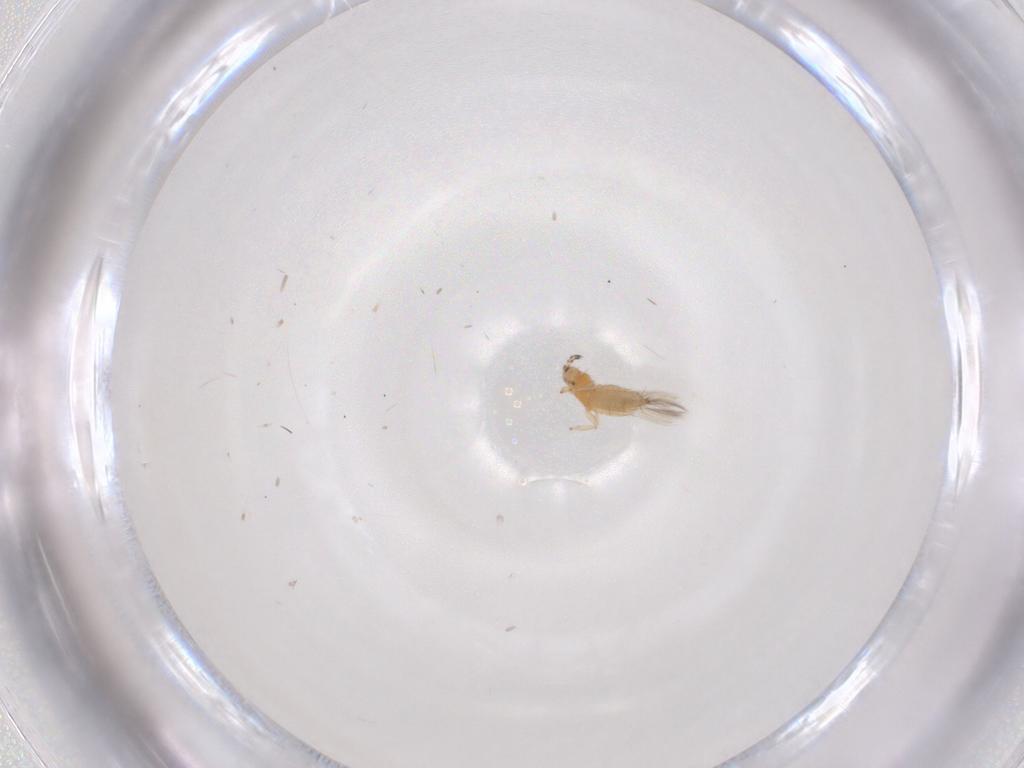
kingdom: Animalia
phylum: Arthropoda
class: Insecta
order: Thysanoptera
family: Thripidae
